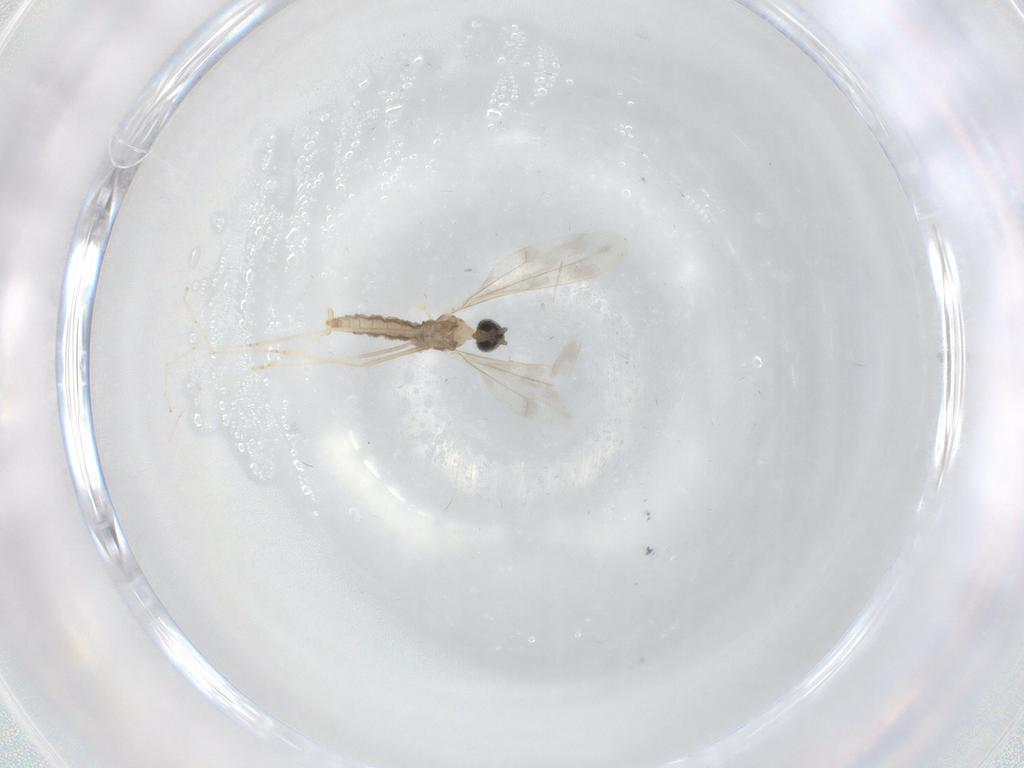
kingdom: Animalia
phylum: Arthropoda
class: Insecta
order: Diptera
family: Cecidomyiidae
